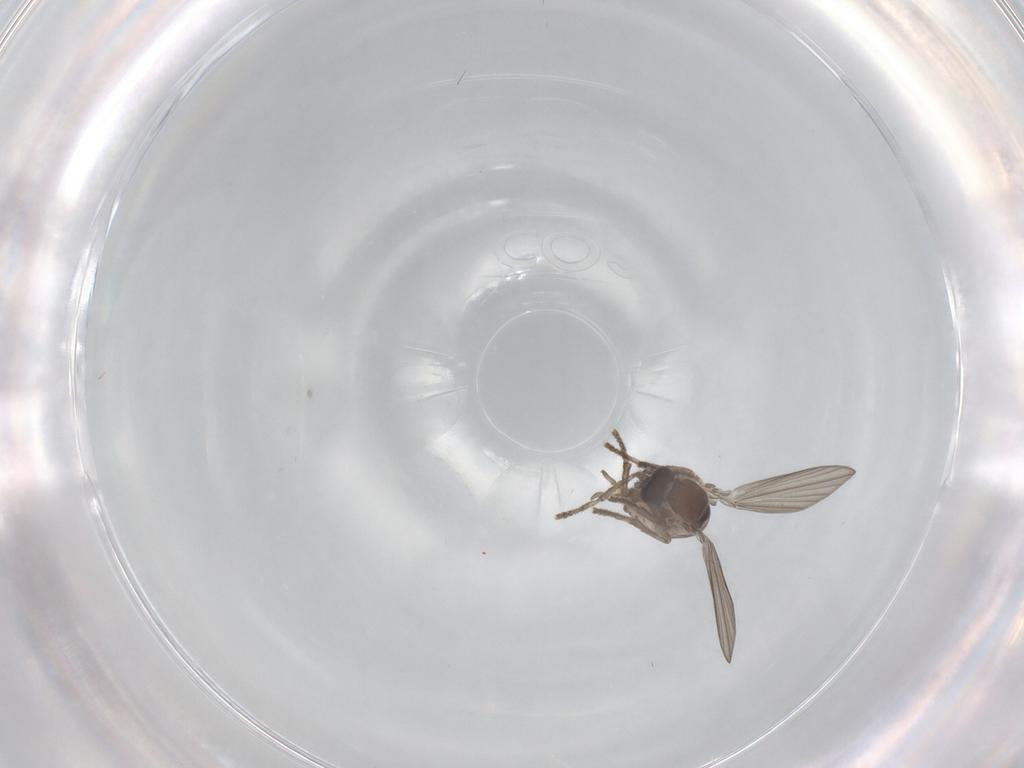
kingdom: Animalia
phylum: Arthropoda
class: Insecta
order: Diptera
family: Psychodidae
